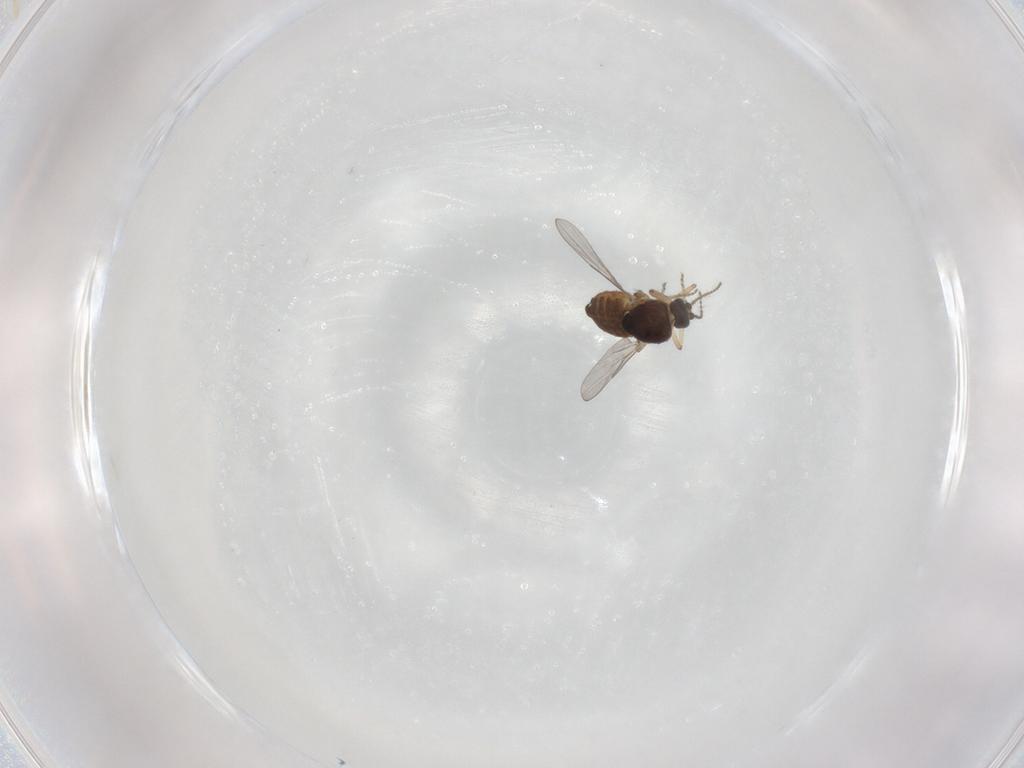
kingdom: Animalia
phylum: Arthropoda
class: Insecta
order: Diptera
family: Ceratopogonidae
